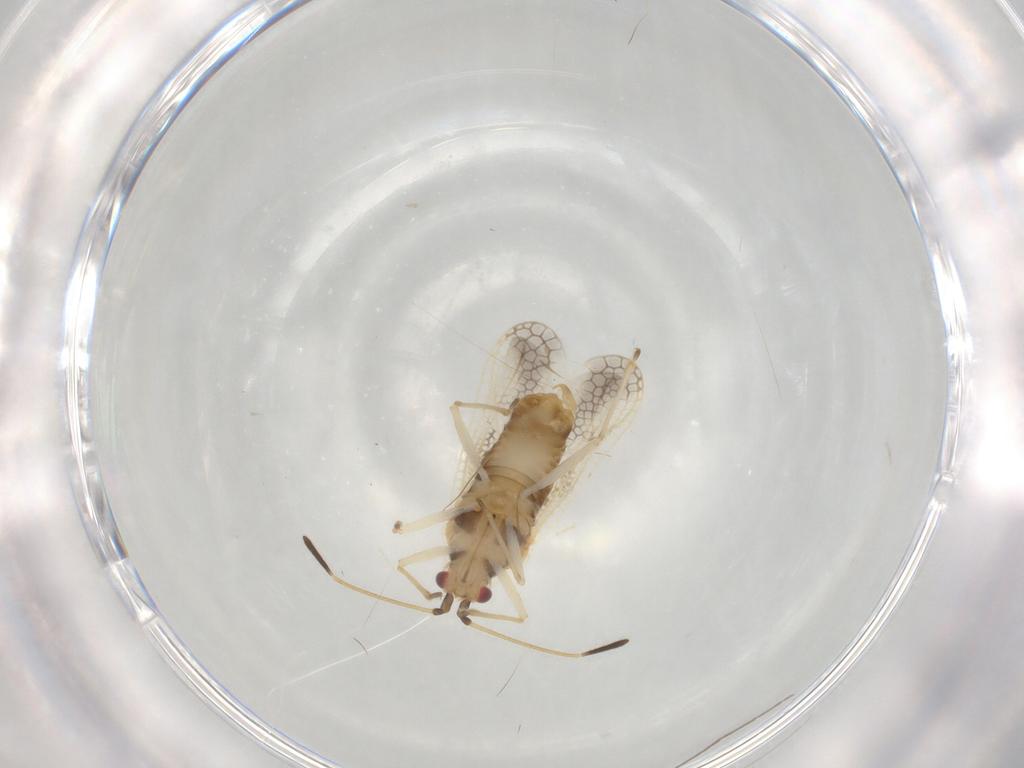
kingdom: Animalia
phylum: Arthropoda
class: Insecta
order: Hemiptera
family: Tingidae
